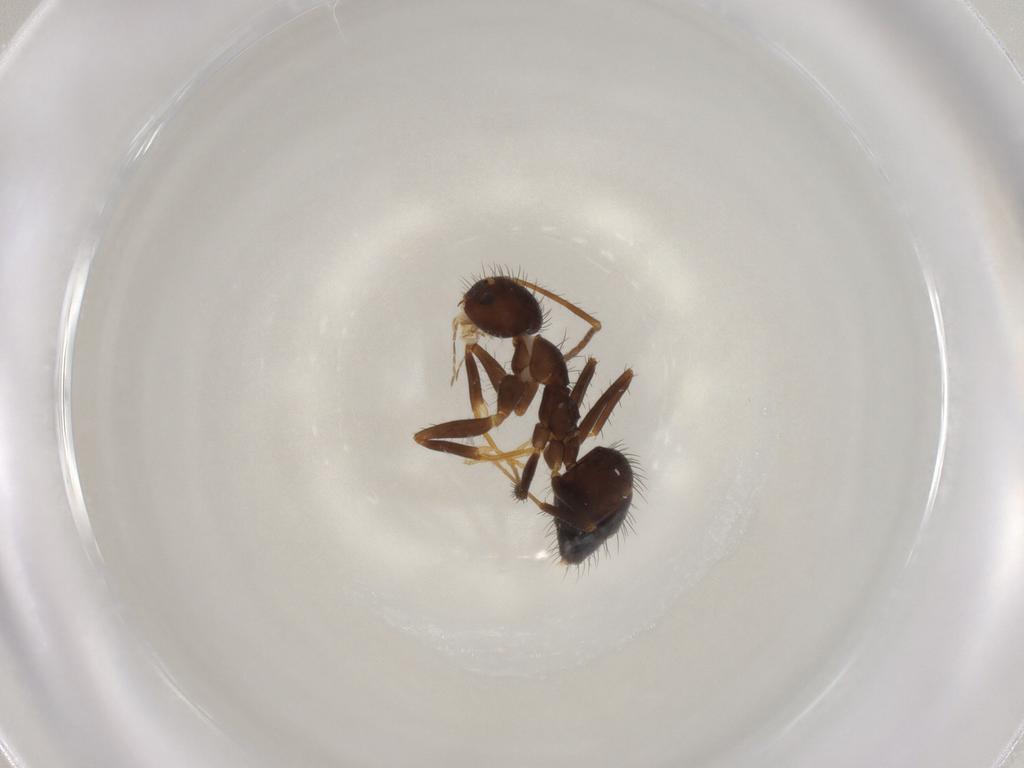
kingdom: Animalia
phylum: Arthropoda
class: Insecta
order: Hymenoptera
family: Formicidae
